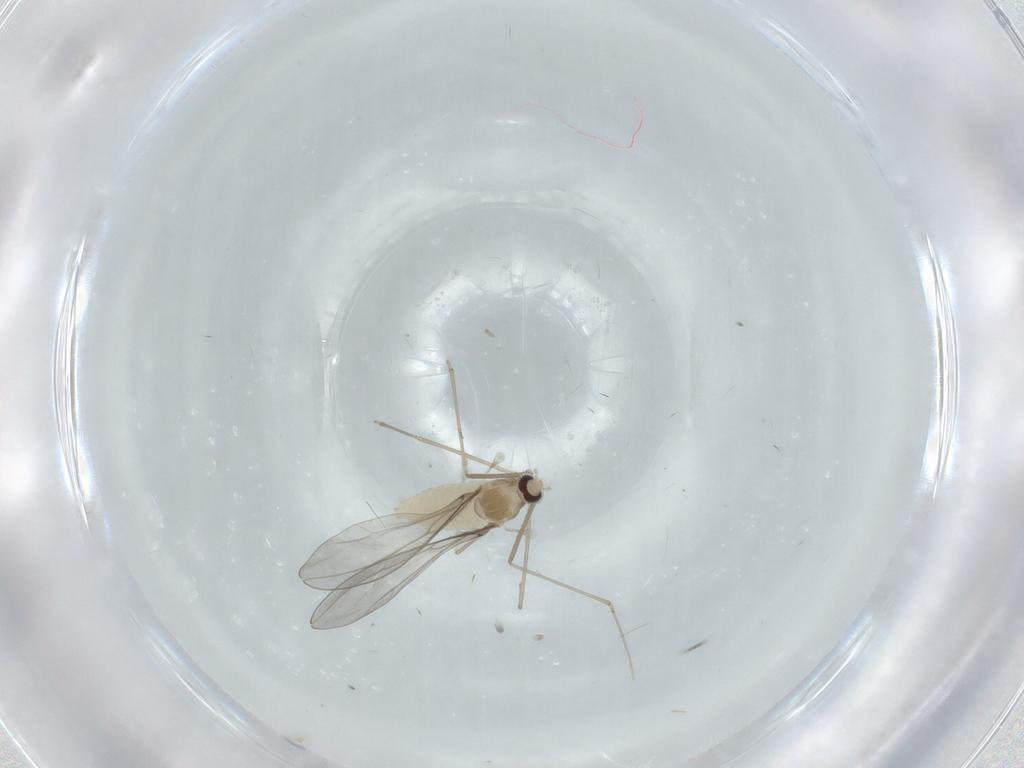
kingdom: Animalia
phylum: Arthropoda
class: Insecta
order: Diptera
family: Cecidomyiidae
